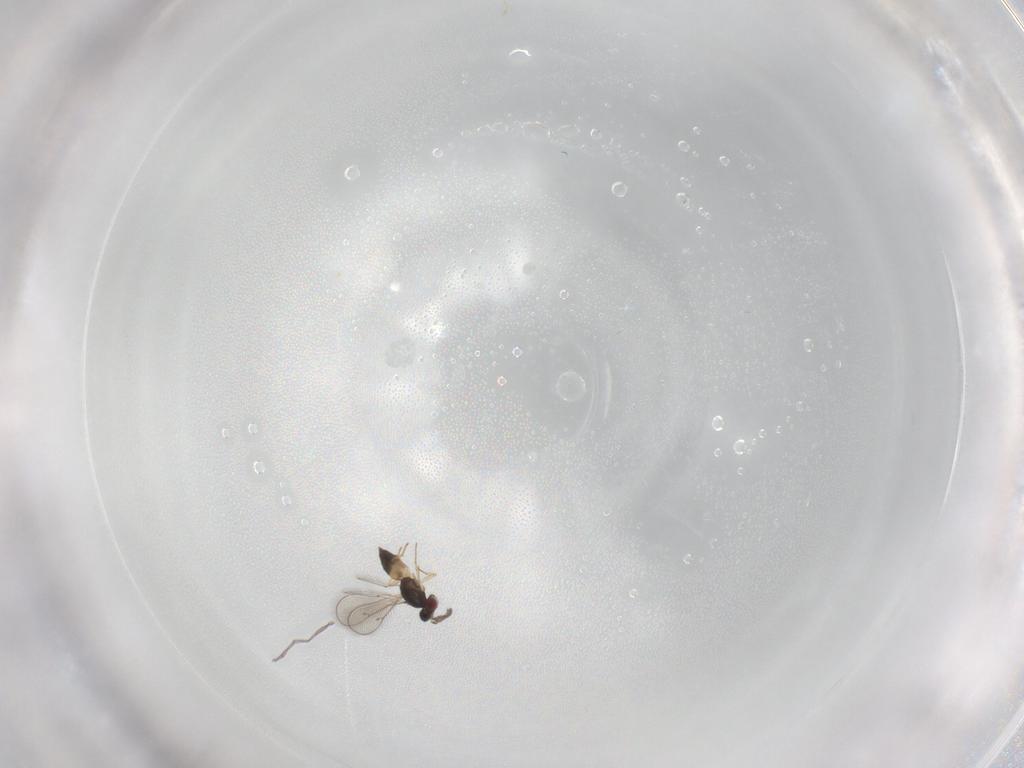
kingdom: Animalia
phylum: Arthropoda
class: Insecta
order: Hymenoptera
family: Eulophidae
